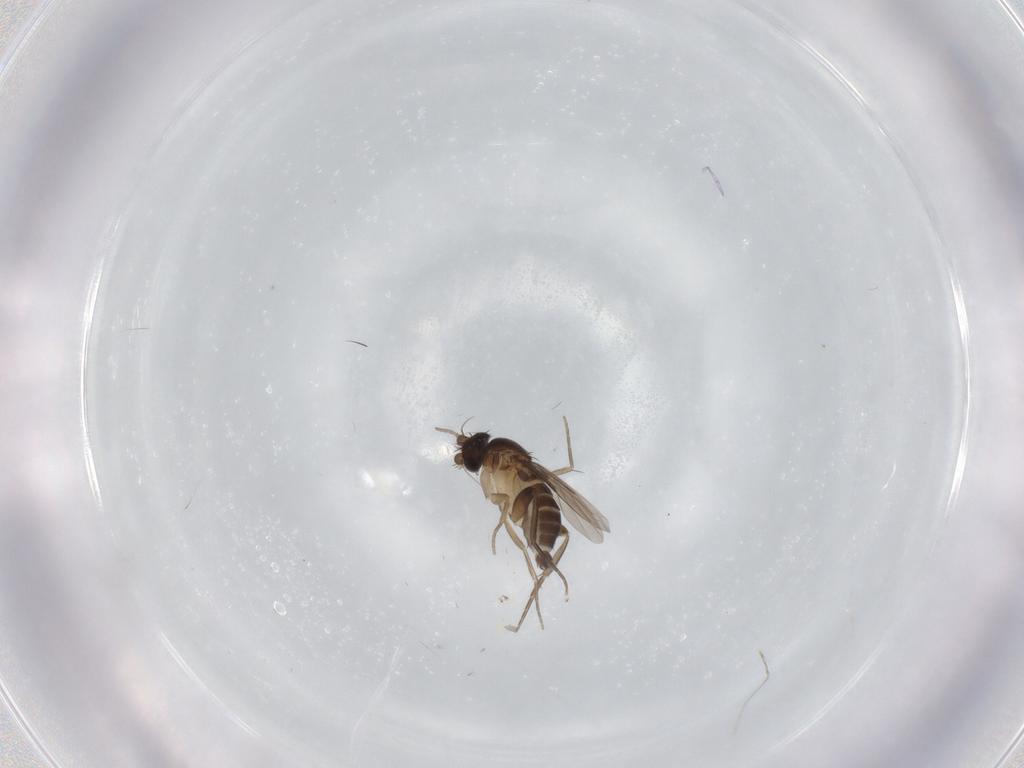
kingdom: Animalia
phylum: Arthropoda
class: Insecta
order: Diptera
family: Phoridae
